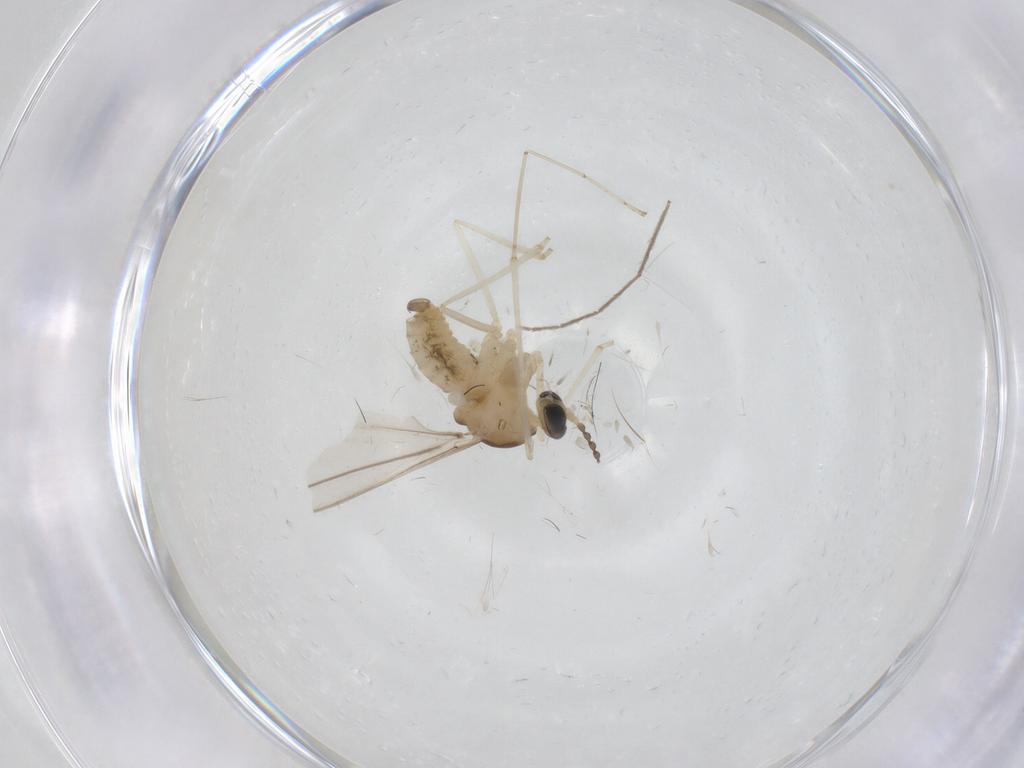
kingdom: Animalia
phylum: Arthropoda
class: Insecta
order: Diptera
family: Cecidomyiidae
